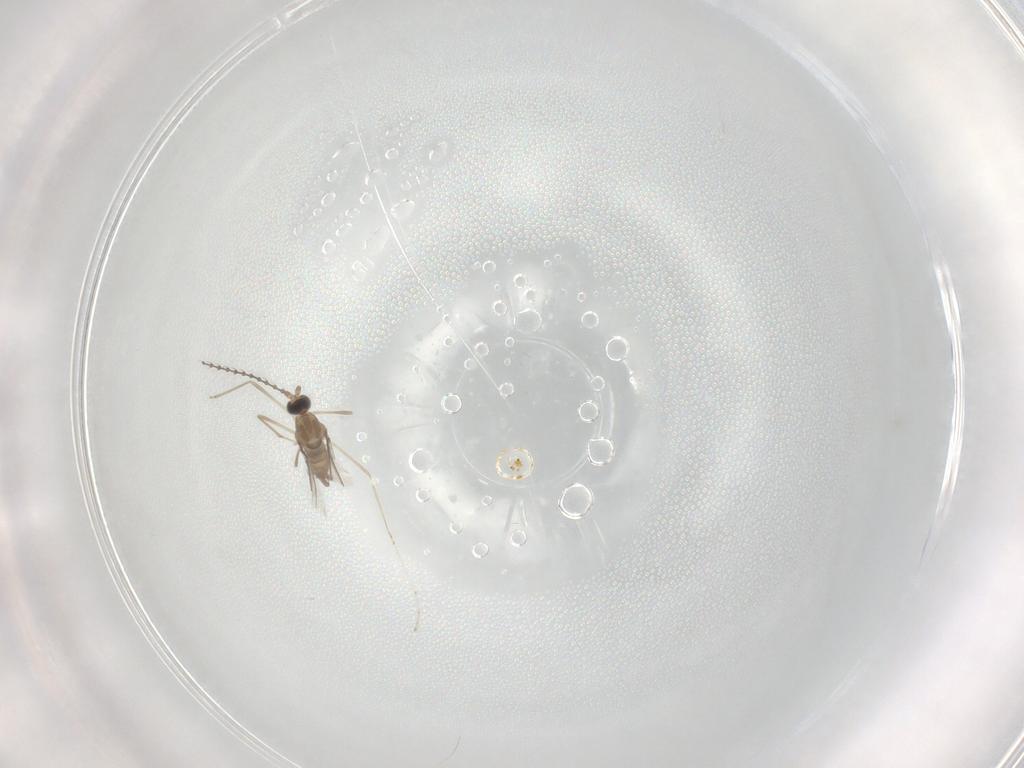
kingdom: Animalia
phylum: Arthropoda
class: Insecta
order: Diptera
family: Cecidomyiidae
